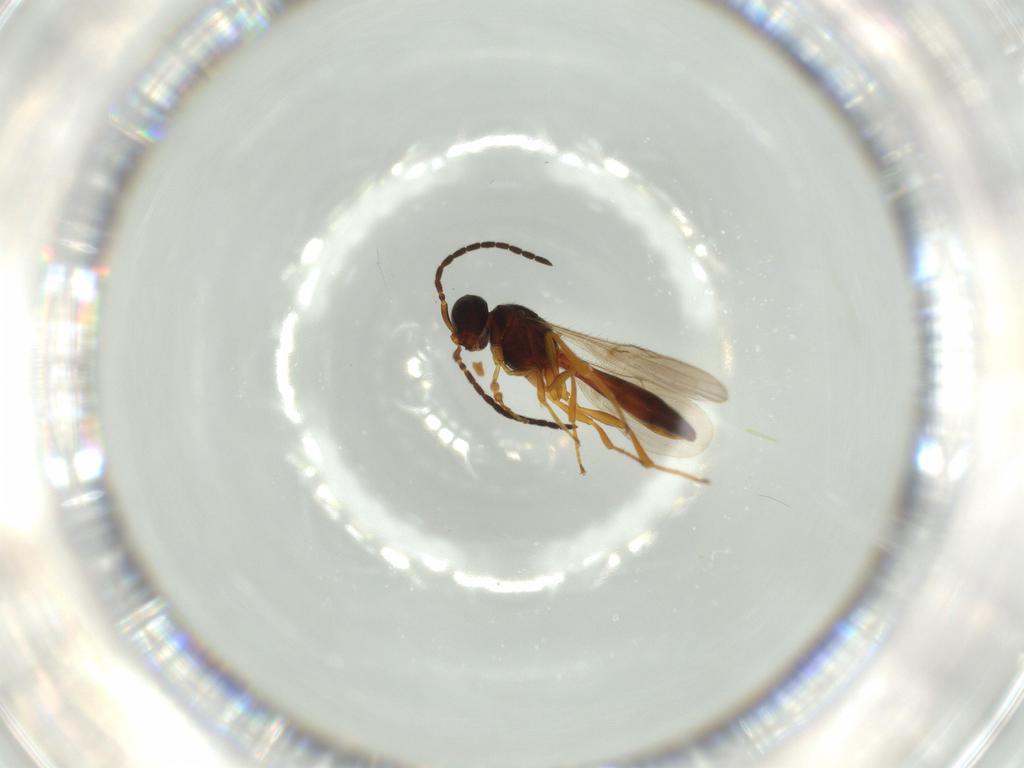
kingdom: Animalia
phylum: Arthropoda
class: Insecta
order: Hymenoptera
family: Scelionidae
